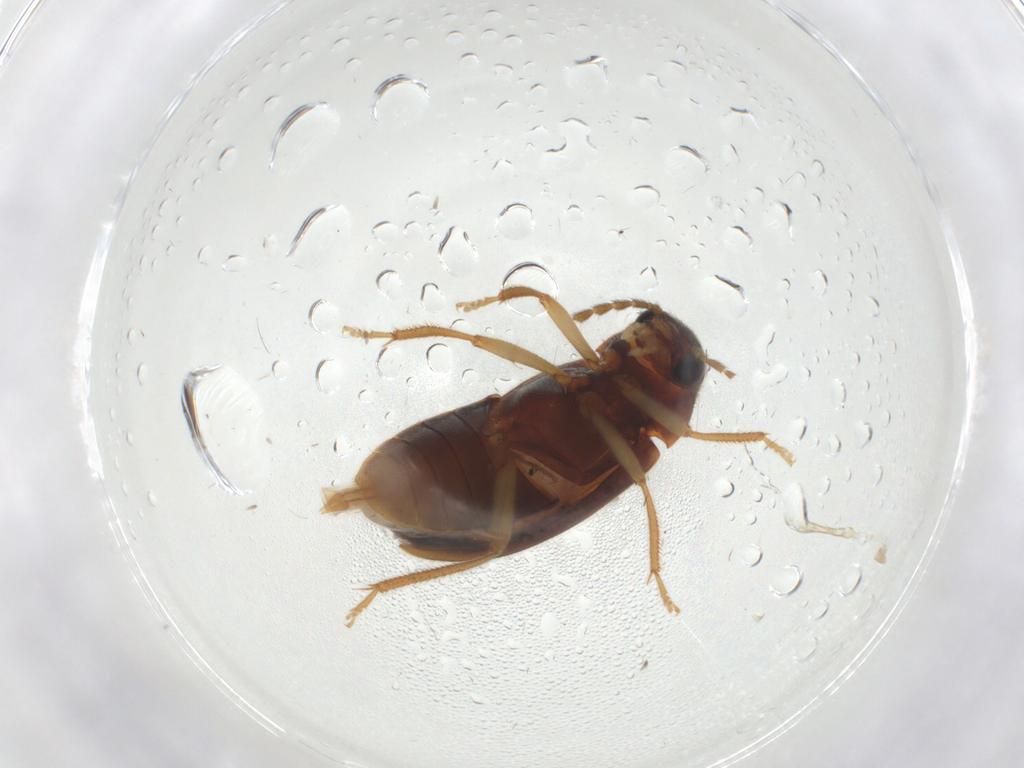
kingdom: Animalia
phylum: Arthropoda
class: Insecta
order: Coleoptera
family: Ptilodactylidae
